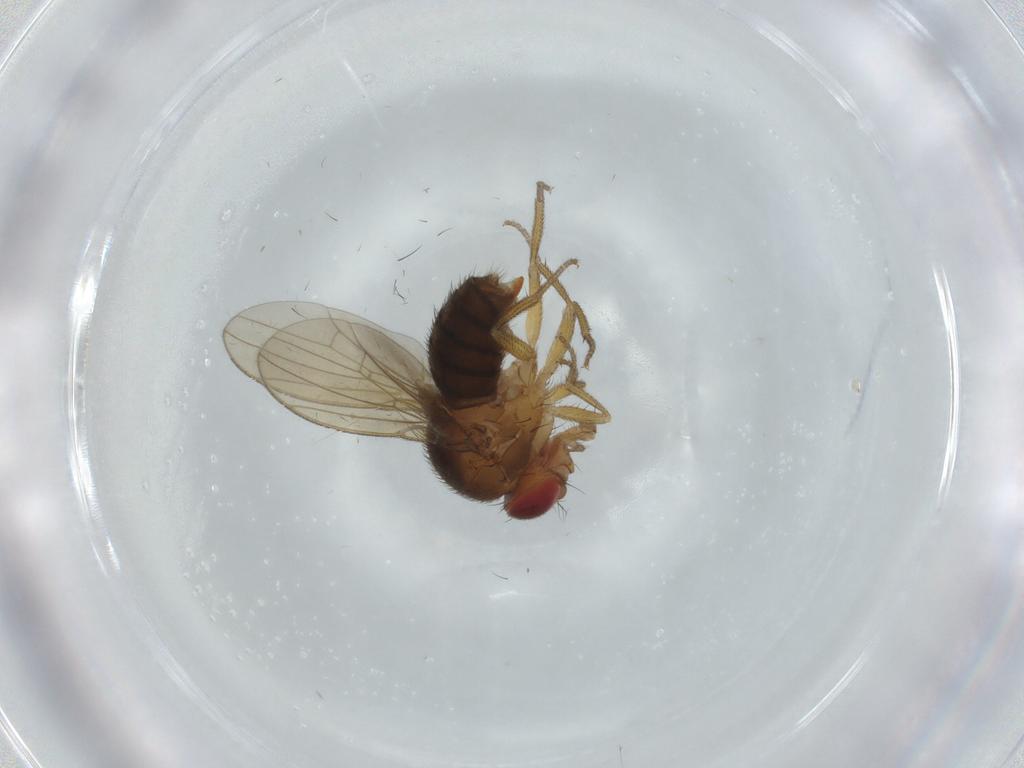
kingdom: Animalia
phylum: Arthropoda
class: Insecta
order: Diptera
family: Drosophilidae
